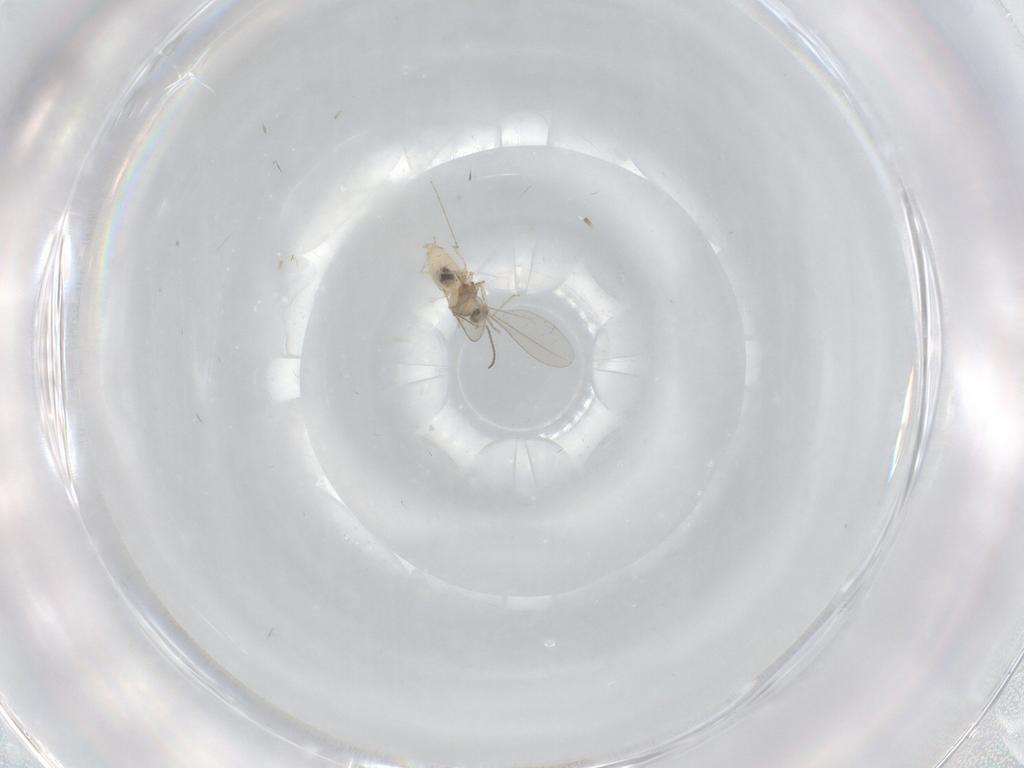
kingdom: Animalia
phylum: Arthropoda
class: Insecta
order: Diptera
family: Cecidomyiidae
